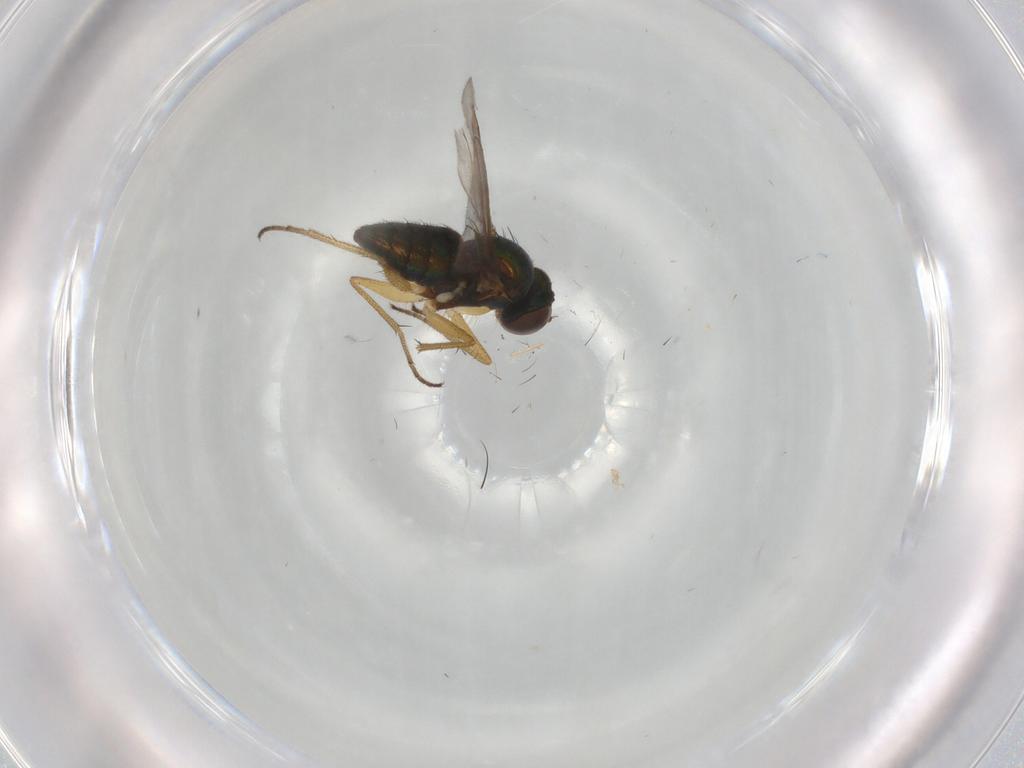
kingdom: Animalia
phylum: Arthropoda
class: Insecta
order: Diptera
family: Dolichopodidae
